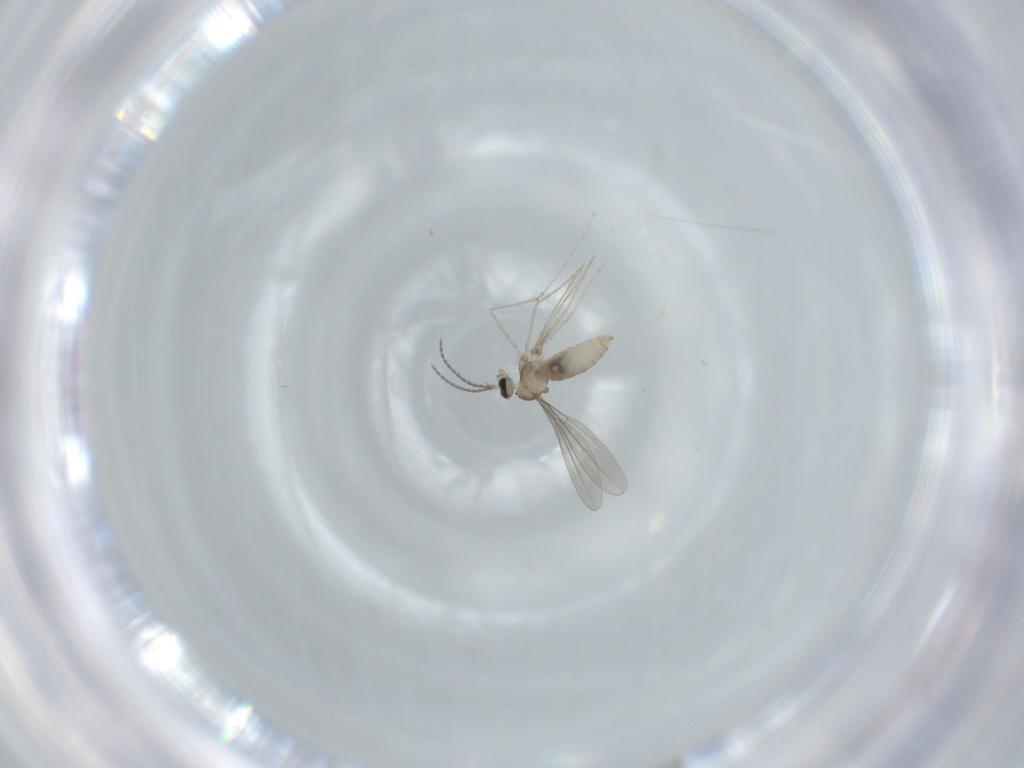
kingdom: Animalia
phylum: Arthropoda
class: Insecta
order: Diptera
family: Cecidomyiidae
